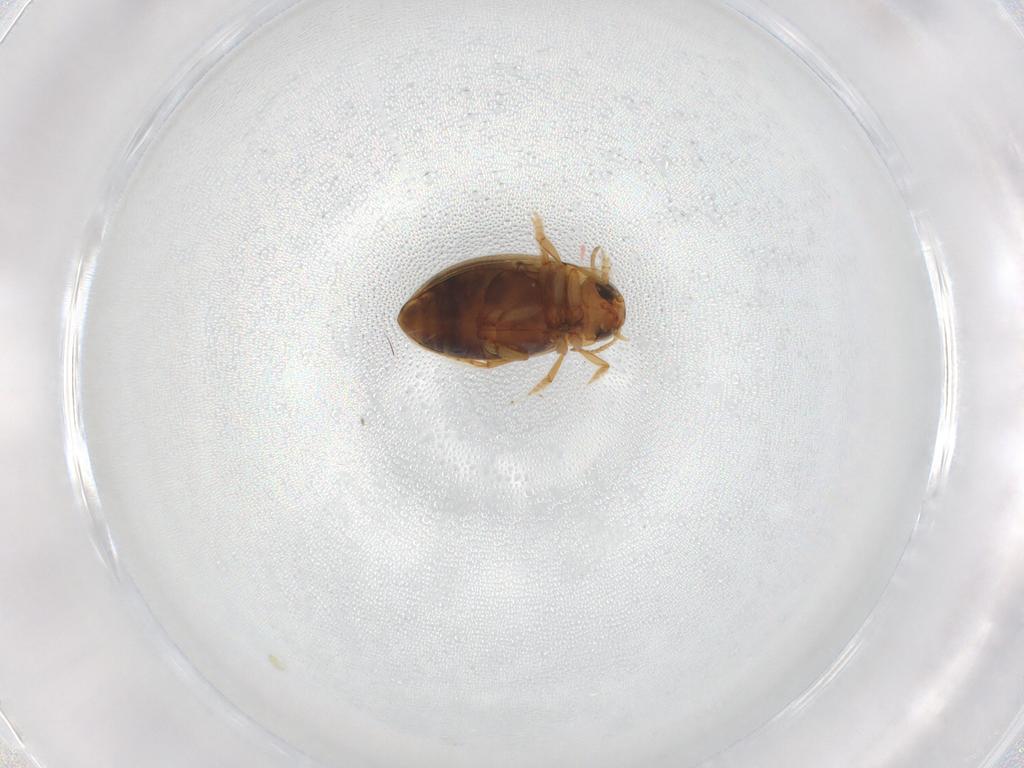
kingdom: Animalia
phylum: Arthropoda
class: Insecta
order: Coleoptera
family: Dytiscidae
